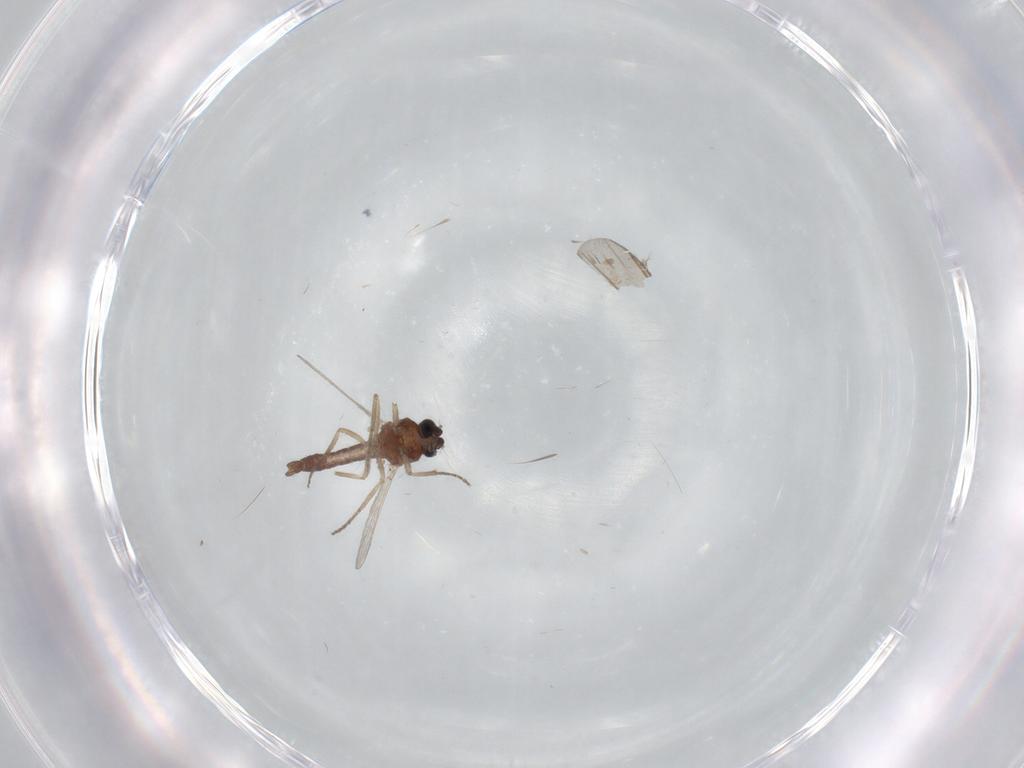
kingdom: Animalia
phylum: Arthropoda
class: Insecta
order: Diptera
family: Ceratopogonidae
